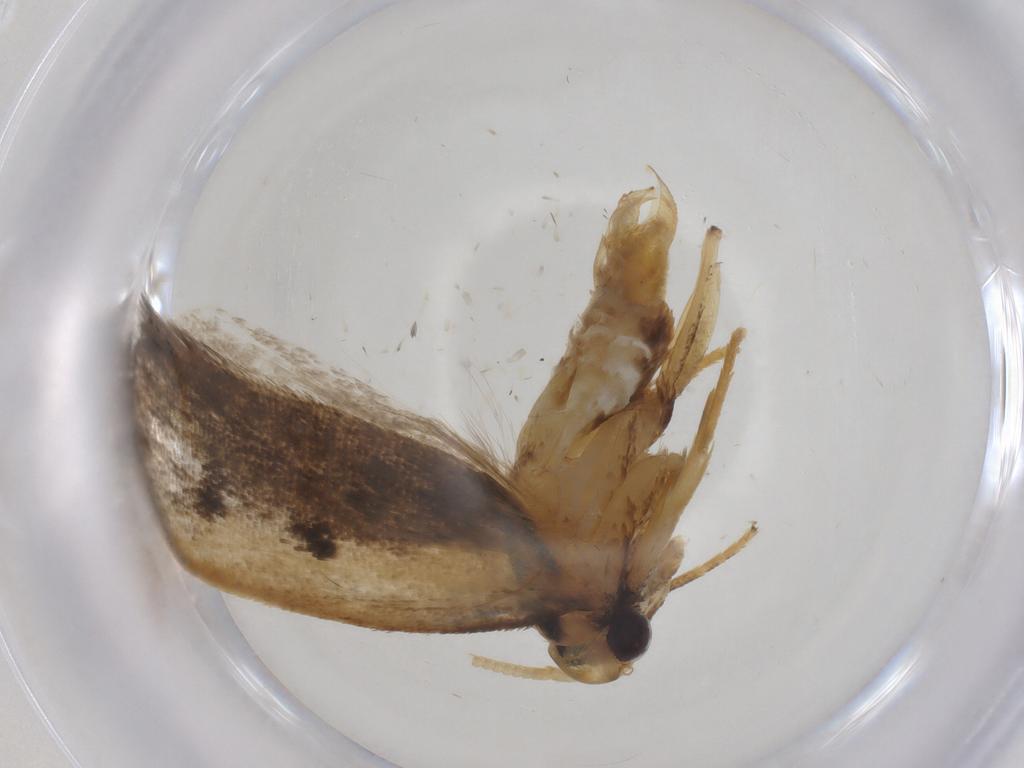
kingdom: Animalia
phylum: Arthropoda
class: Insecta
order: Lepidoptera
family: Lecithoceridae
